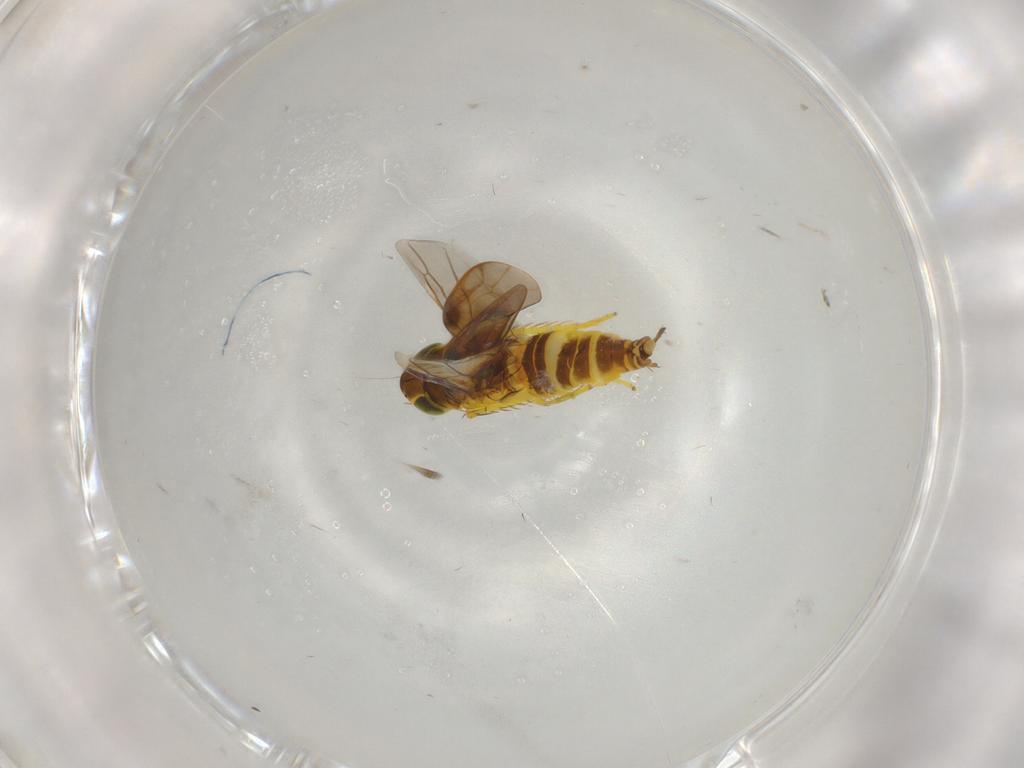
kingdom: Animalia
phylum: Arthropoda
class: Insecta
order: Hemiptera
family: Cicadellidae
